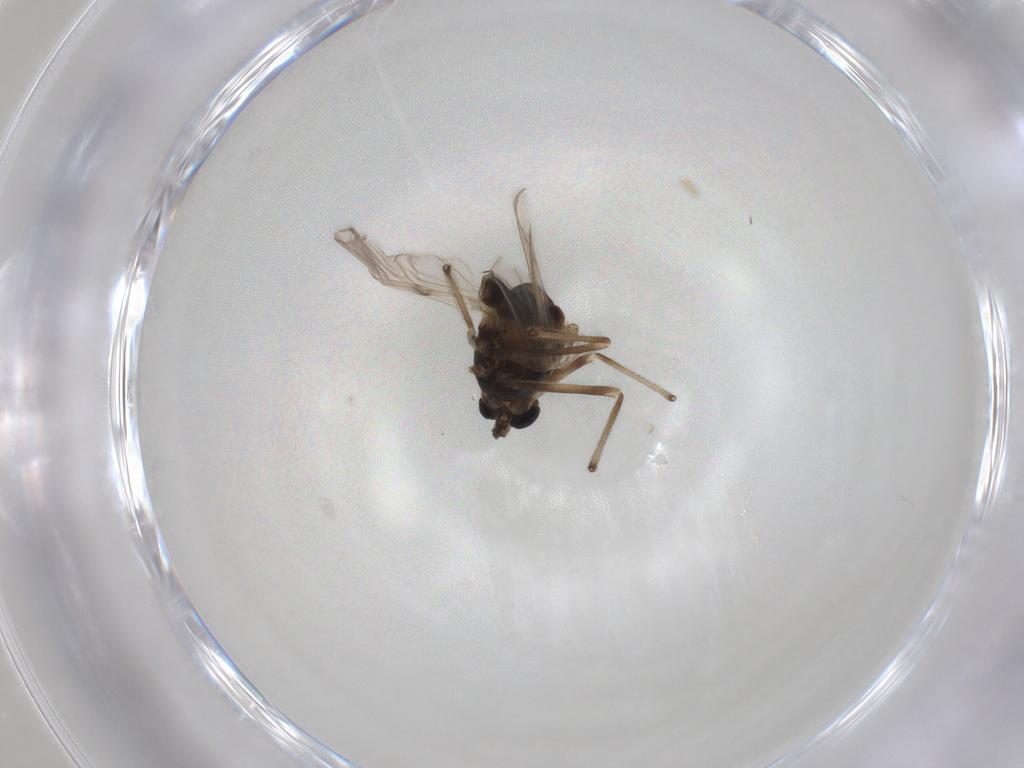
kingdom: Animalia
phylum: Arthropoda
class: Insecta
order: Diptera
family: Chironomidae
